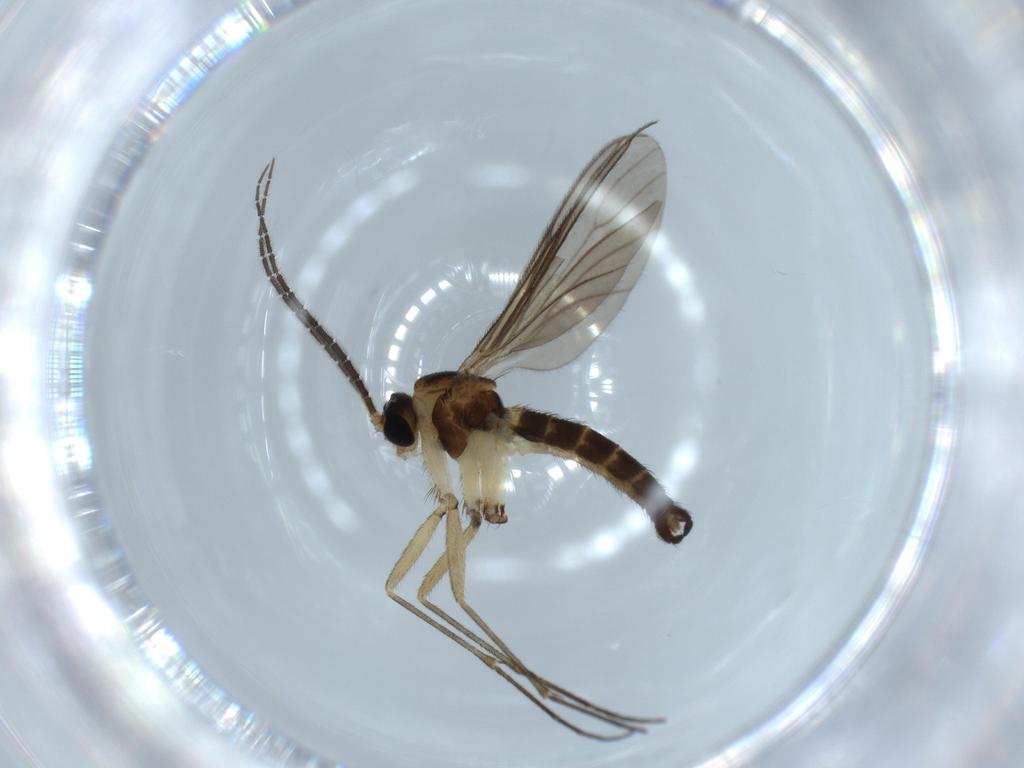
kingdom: Animalia
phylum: Arthropoda
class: Insecta
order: Diptera
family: Sciaridae
